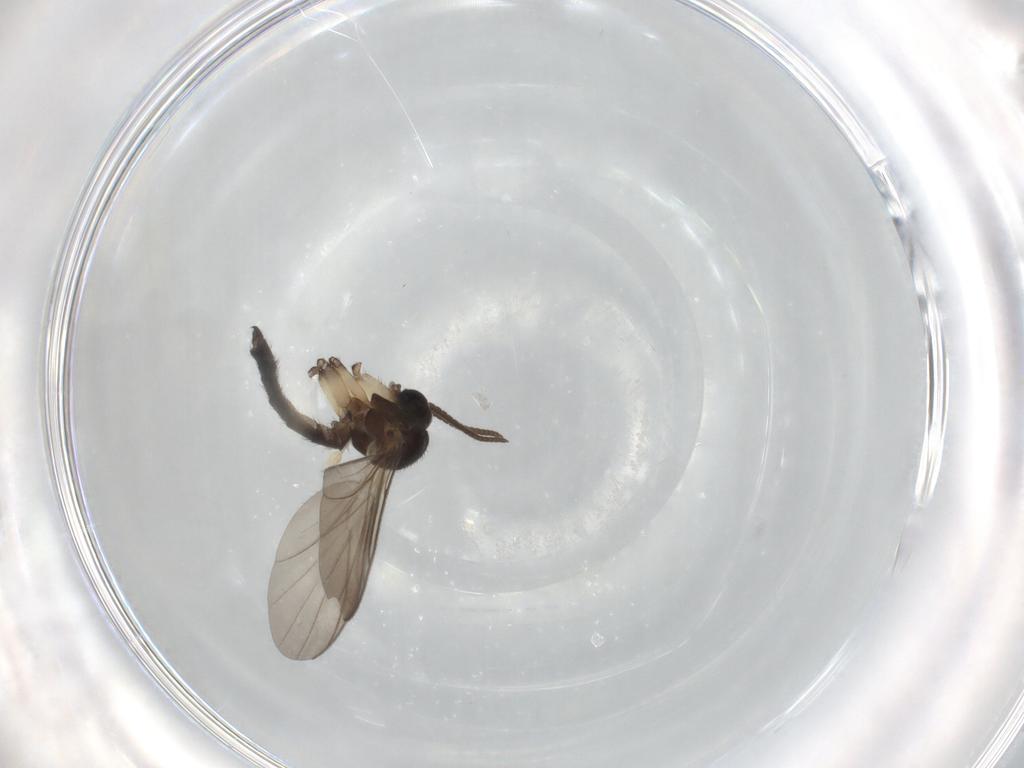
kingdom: Animalia
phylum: Arthropoda
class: Insecta
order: Diptera
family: Keroplatidae
